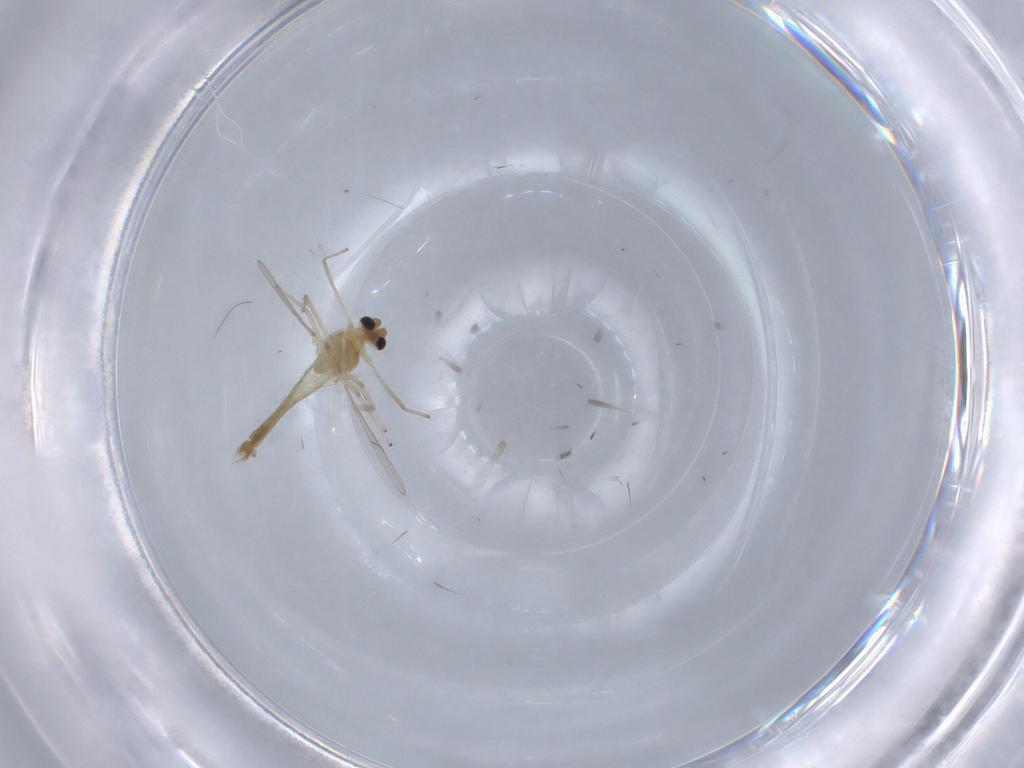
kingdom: Animalia
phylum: Arthropoda
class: Insecta
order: Diptera
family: Chironomidae
